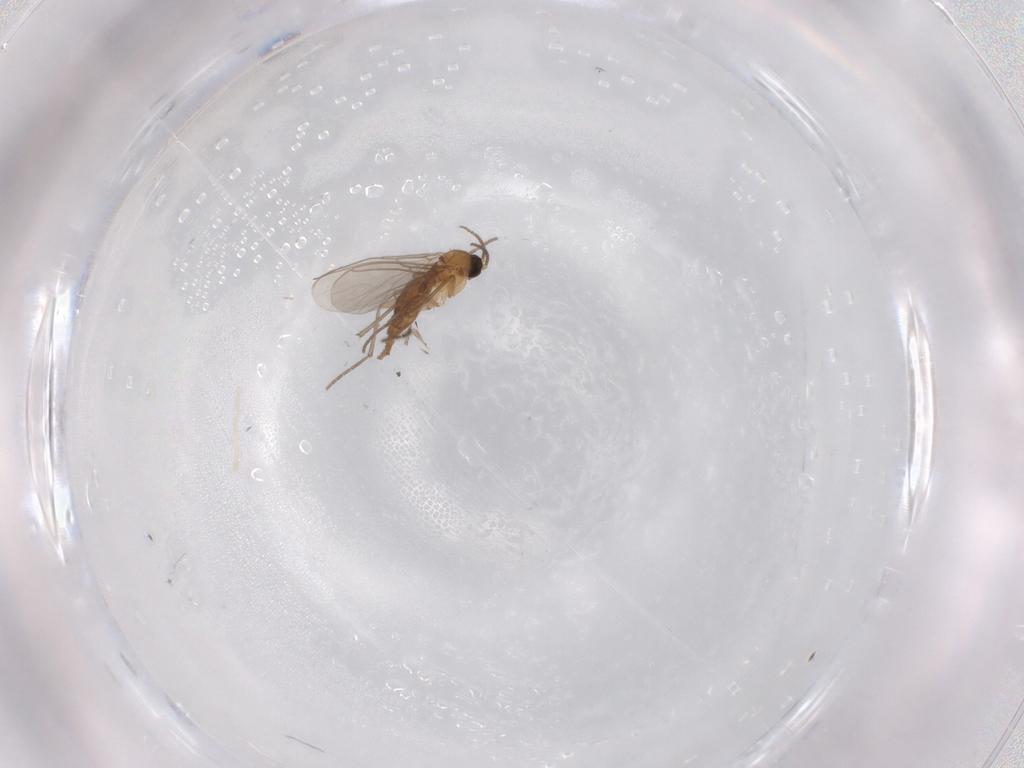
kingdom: Animalia
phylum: Arthropoda
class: Insecta
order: Diptera
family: Sciaridae
